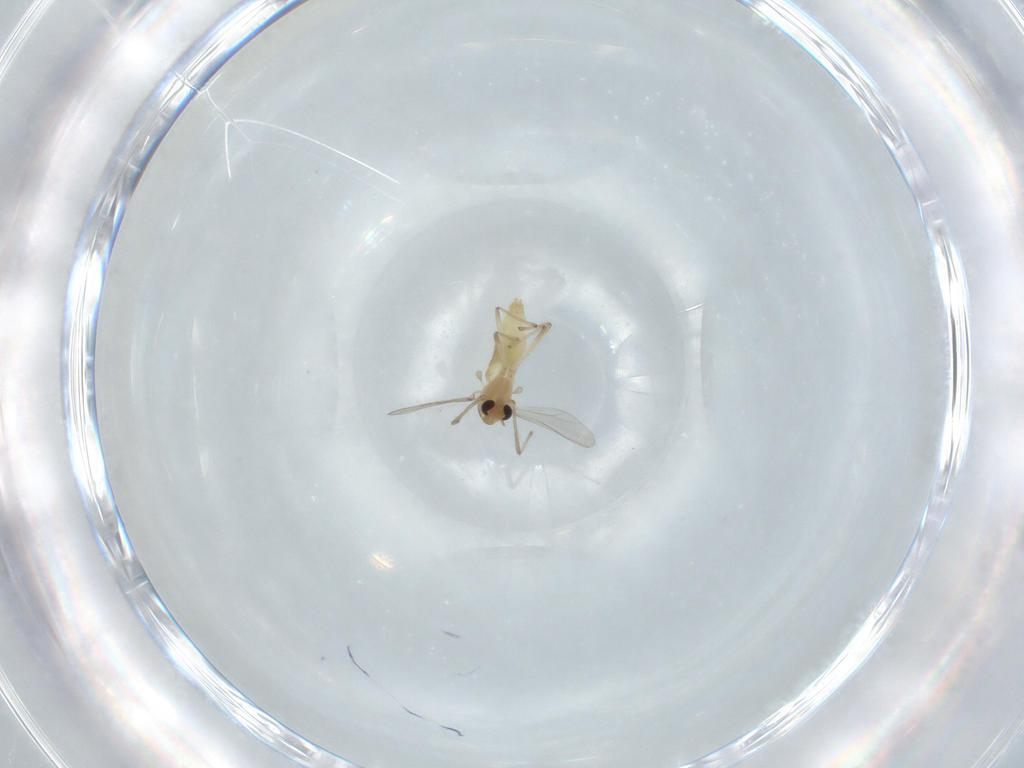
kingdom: Animalia
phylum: Arthropoda
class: Insecta
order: Diptera
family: Chironomidae
